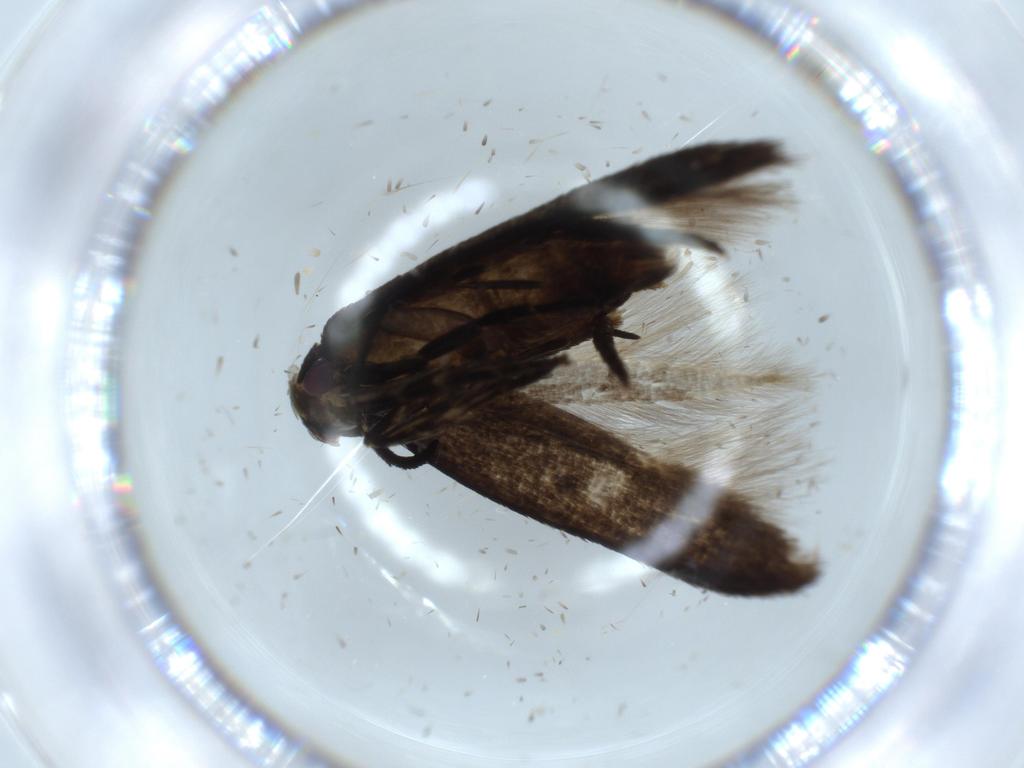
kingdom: Animalia
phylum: Arthropoda
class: Insecta
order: Lepidoptera
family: Cosmopterigidae
